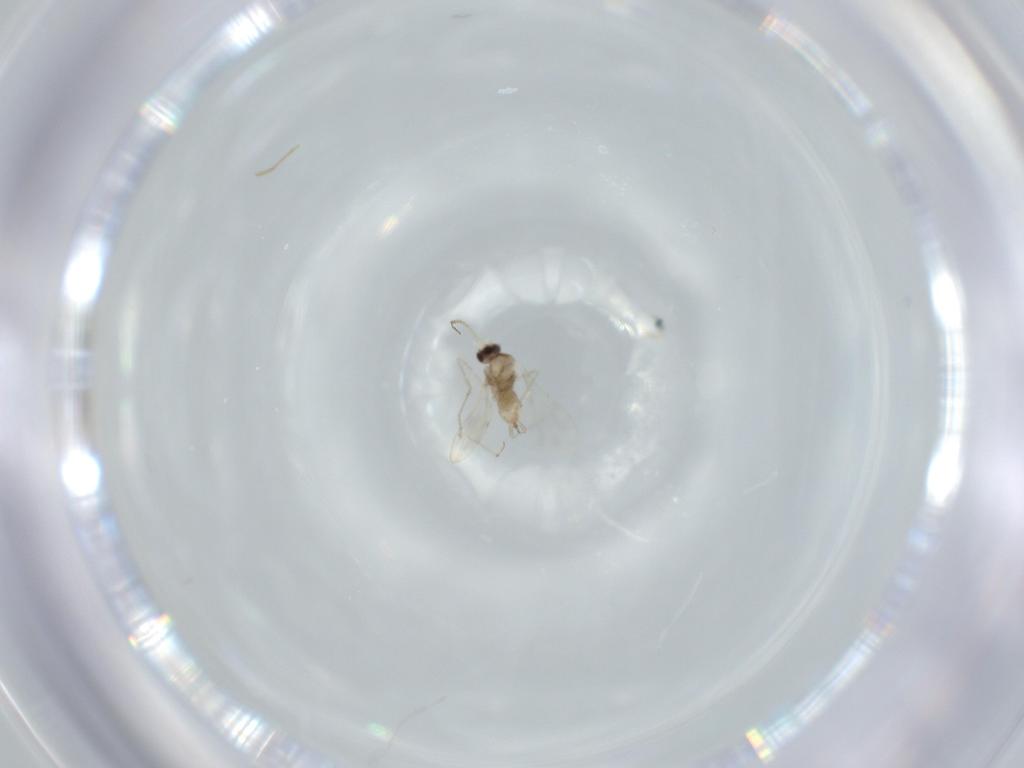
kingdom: Animalia
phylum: Arthropoda
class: Insecta
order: Diptera
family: Cecidomyiidae
